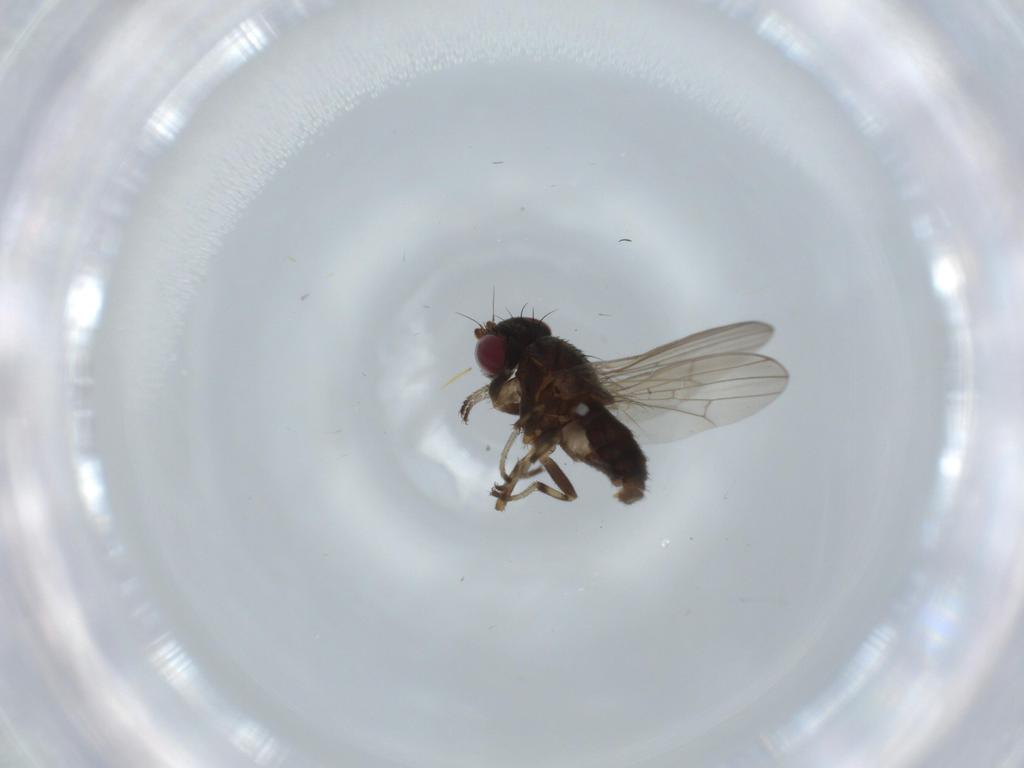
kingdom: Animalia
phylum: Arthropoda
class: Insecta
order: Diptera
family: Heleomyzidae
